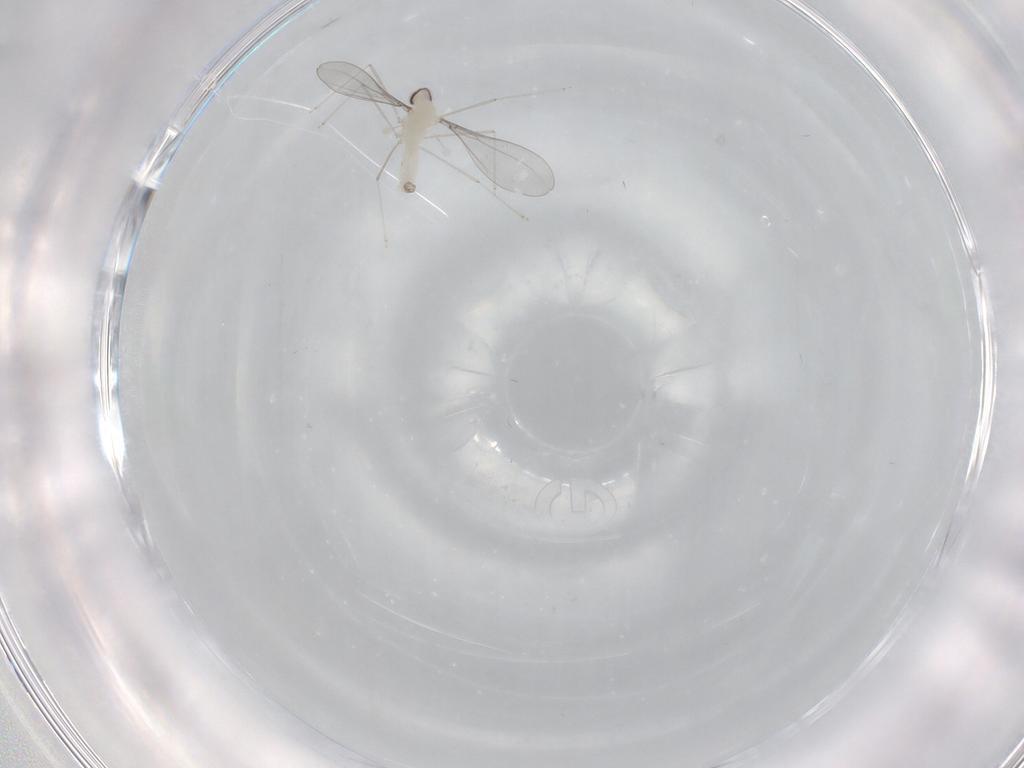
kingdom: Animalia
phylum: Arthropoda
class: Insecta
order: Diptera
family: Cecidomyiidae
